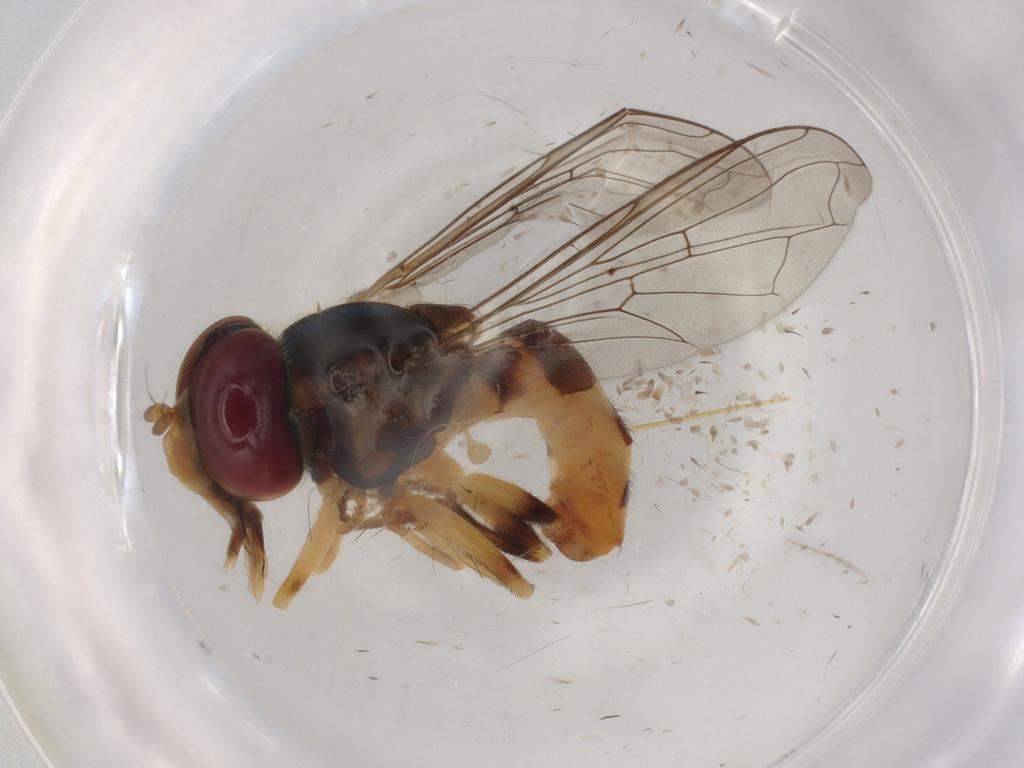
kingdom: Animalia
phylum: Arthropoda
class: Insecta
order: Diptera
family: Syrphidae
